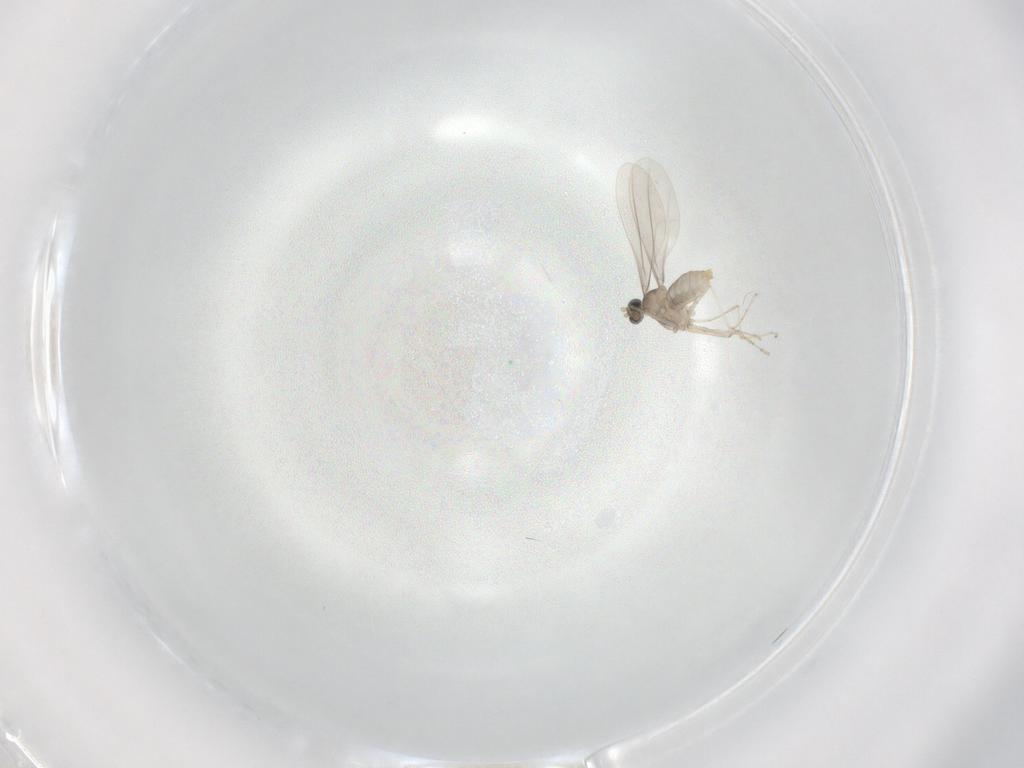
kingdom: Animalia
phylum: Arthropoda
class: Insecta
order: Diptera
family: Cecidomyiidae
